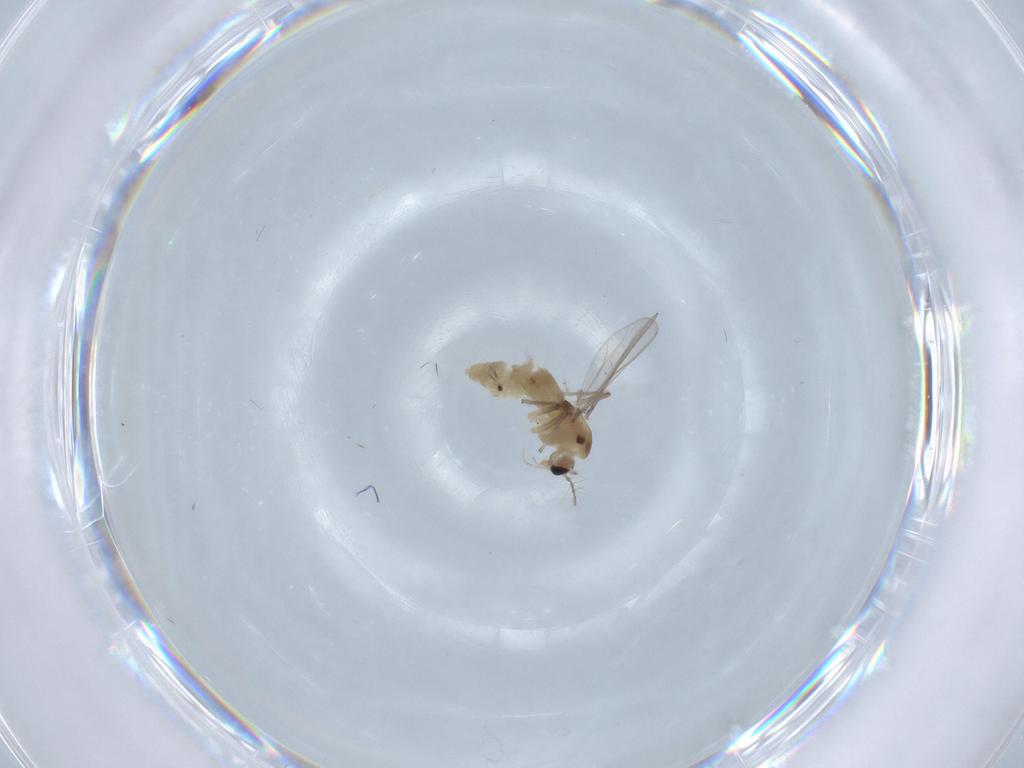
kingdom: Animalia
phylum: Arthropoda
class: Insecta
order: Diptera
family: Chironomidae
